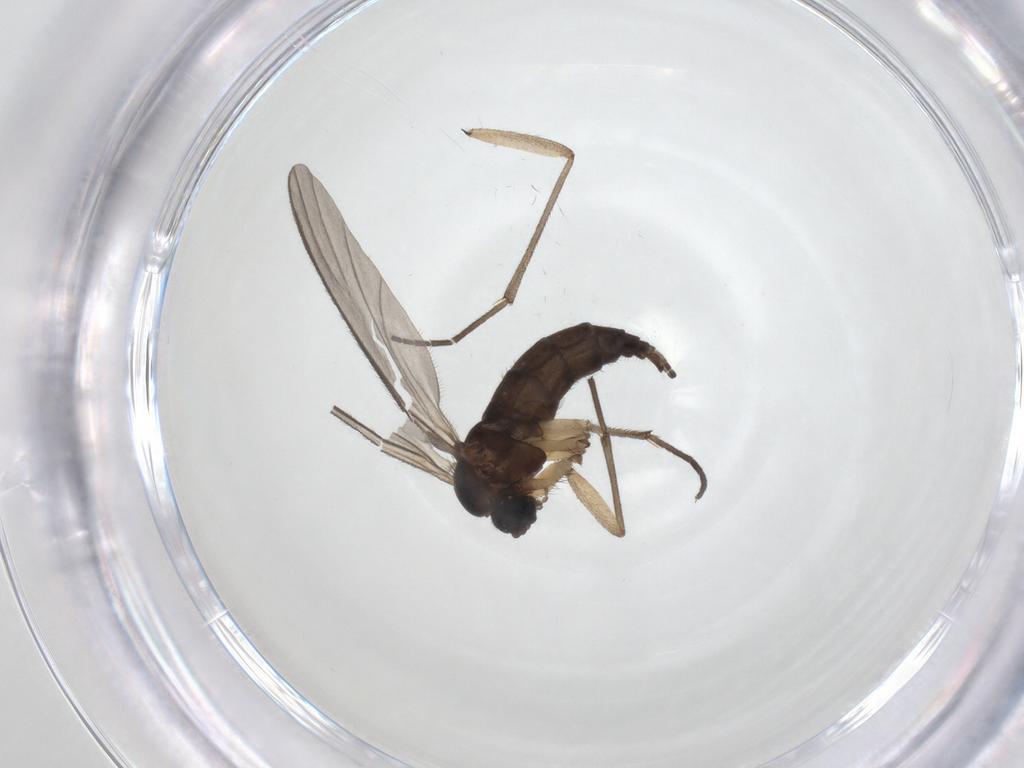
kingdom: Animalia
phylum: Arthropoda
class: Insecta
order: Diptera
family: Sciaridae
